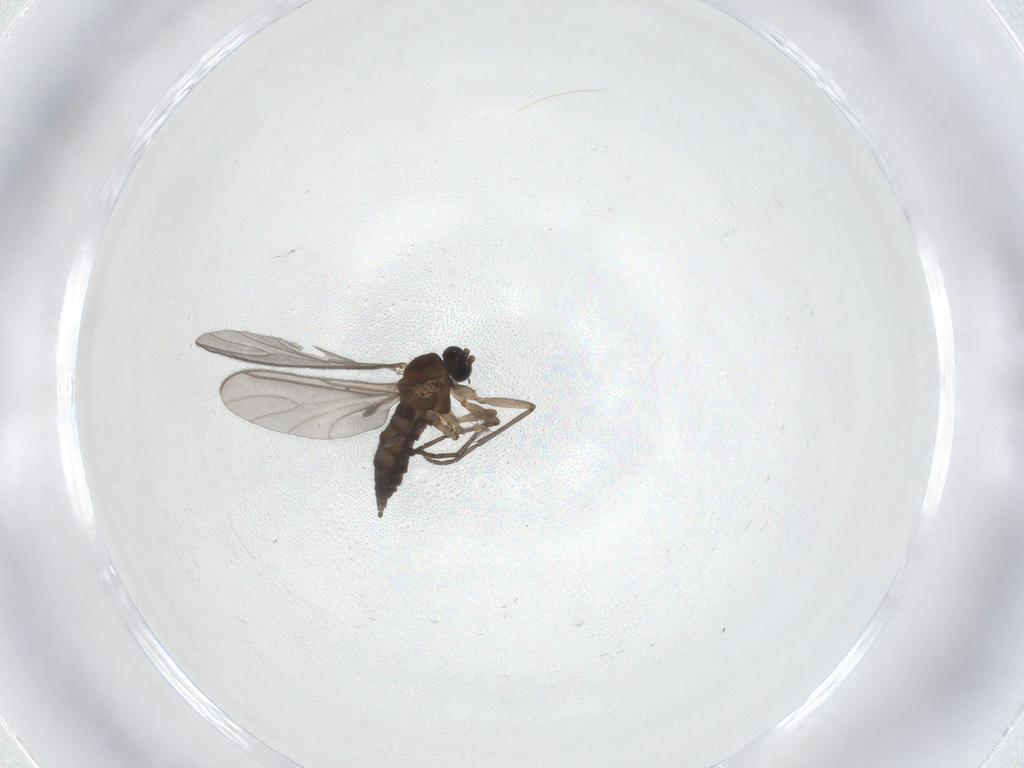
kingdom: Animalia
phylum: Arthropoda
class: Insecta
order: Diptera
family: Culicidae
